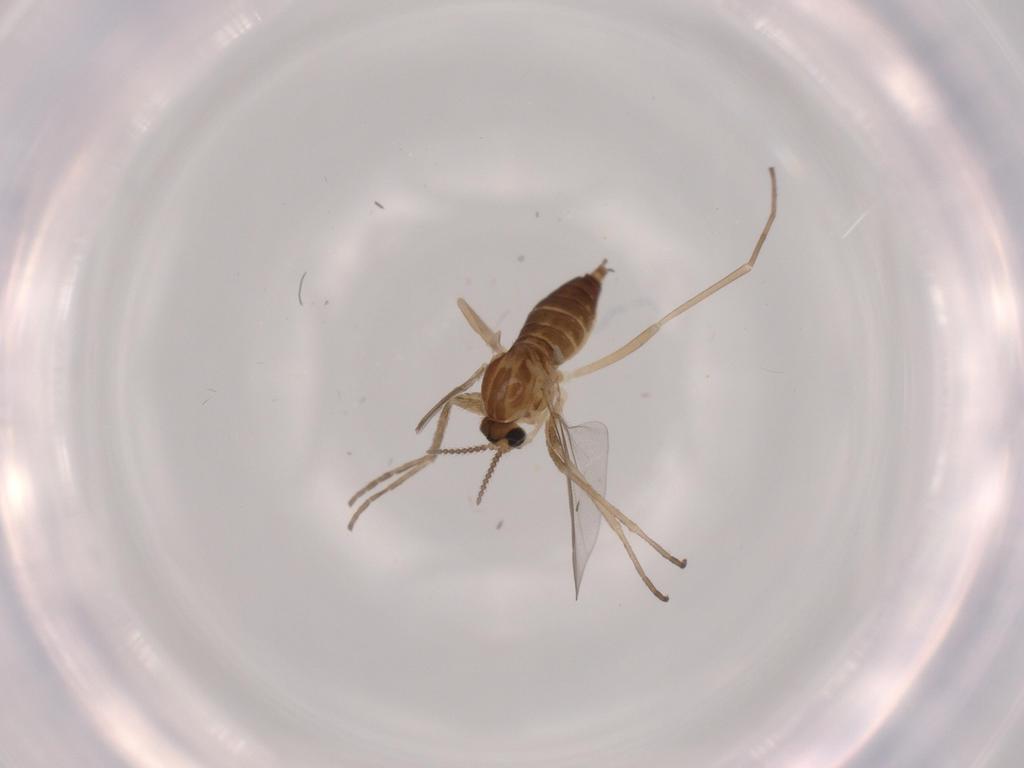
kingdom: Animalia
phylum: Arthropoda
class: Insecta
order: Diptera
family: Cecidomyiidae
